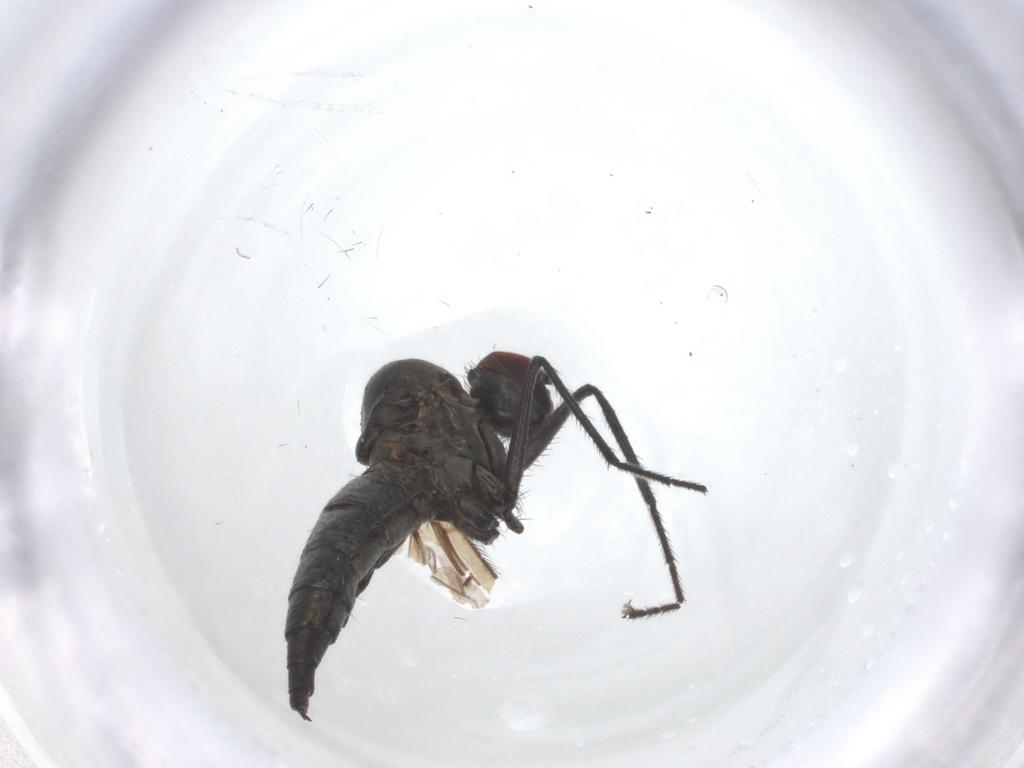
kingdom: Animalia
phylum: Arthropoda
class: Insecta
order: Diptera
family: Hybotidae
